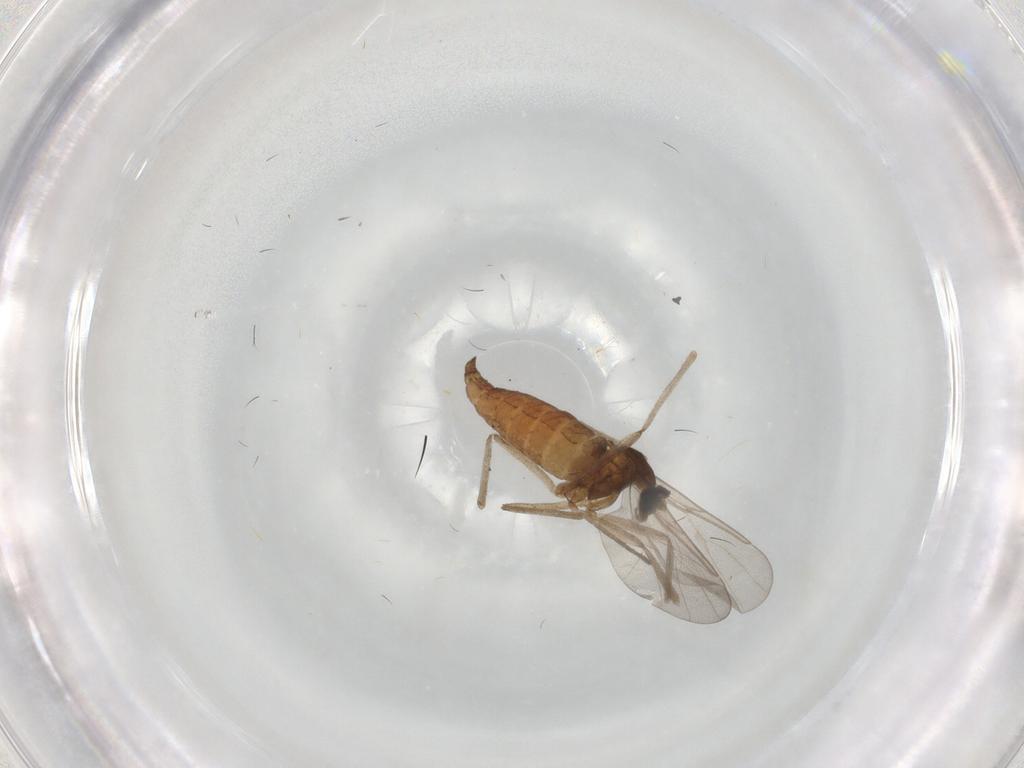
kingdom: Animalia
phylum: Arthropoda
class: Insecta
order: Diptera
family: Cecidomyiidae
